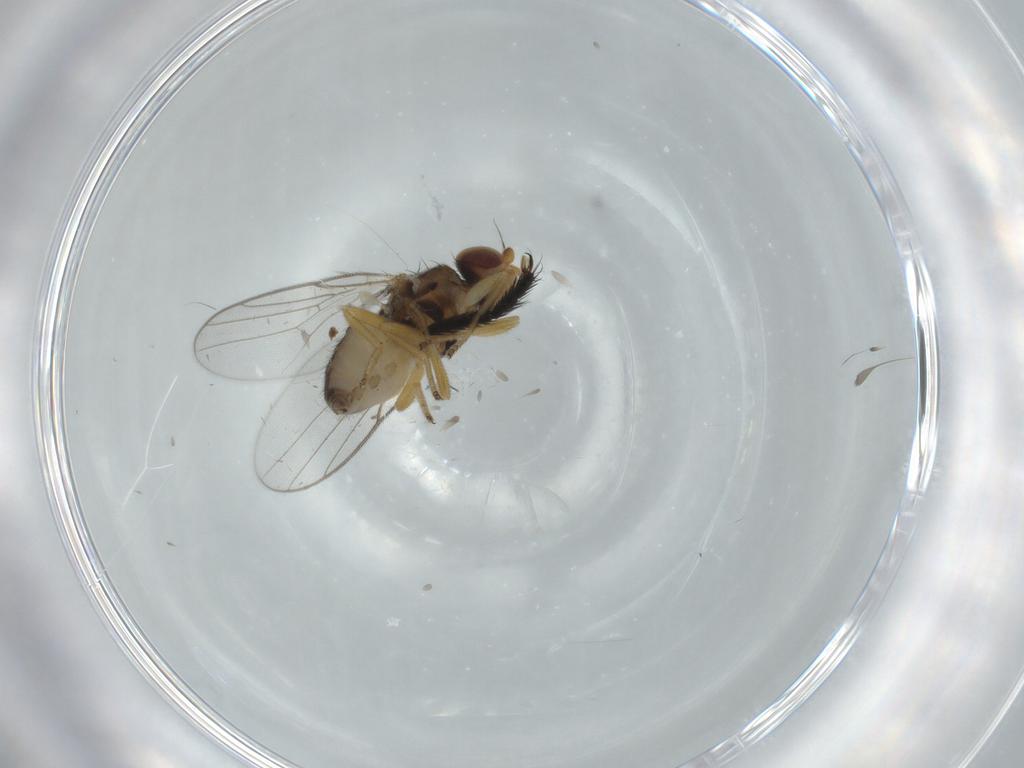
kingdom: Animalia
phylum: Arthropoda
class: Insecta
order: Diptera
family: Chloropidae
